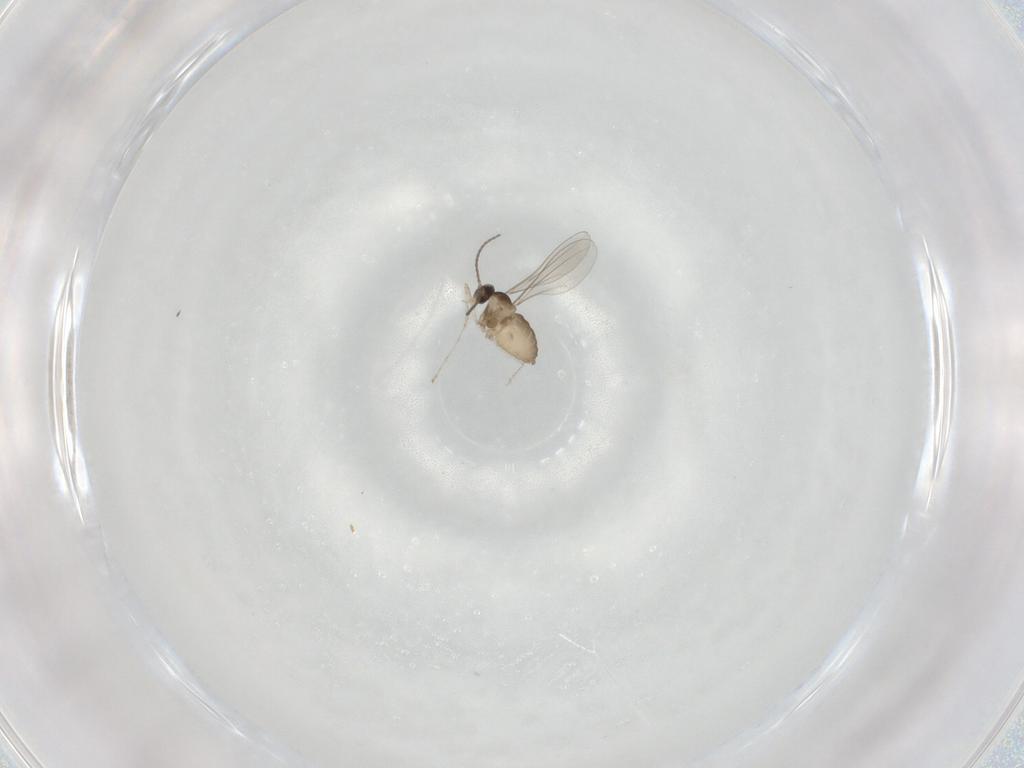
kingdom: Animalia
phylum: Arthropoda
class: Insecta
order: Diptera
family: Cecidomyiidae
